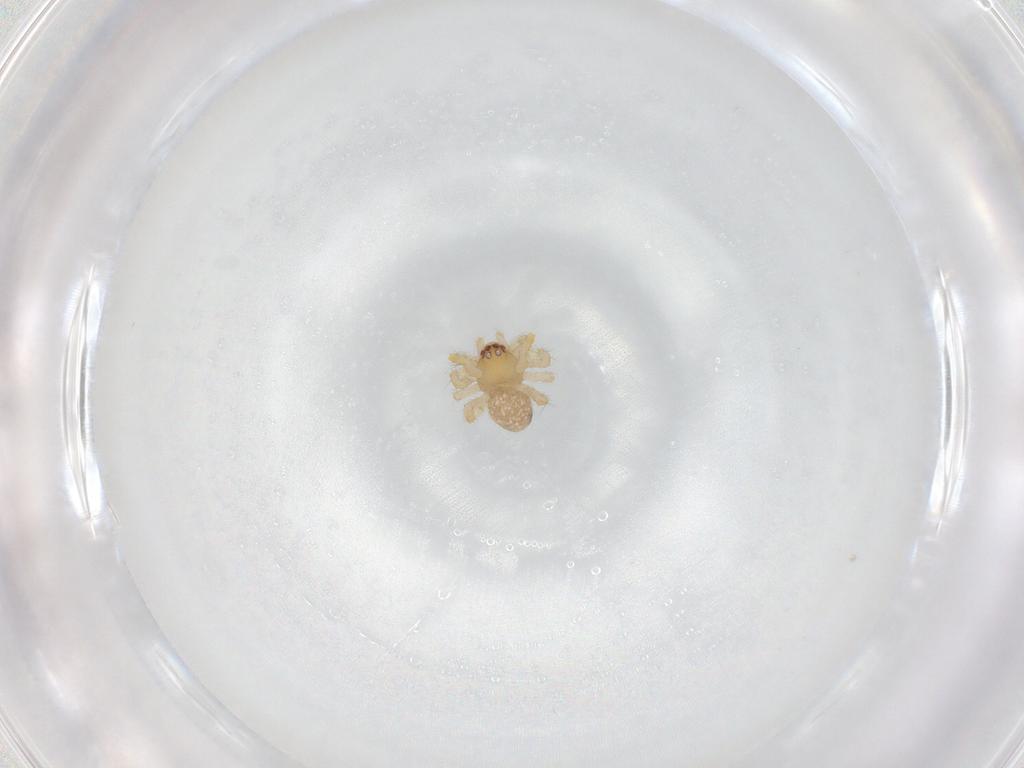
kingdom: Animalia
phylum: Arthropoda
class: Arachnida
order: Araneae
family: Theridiidae
